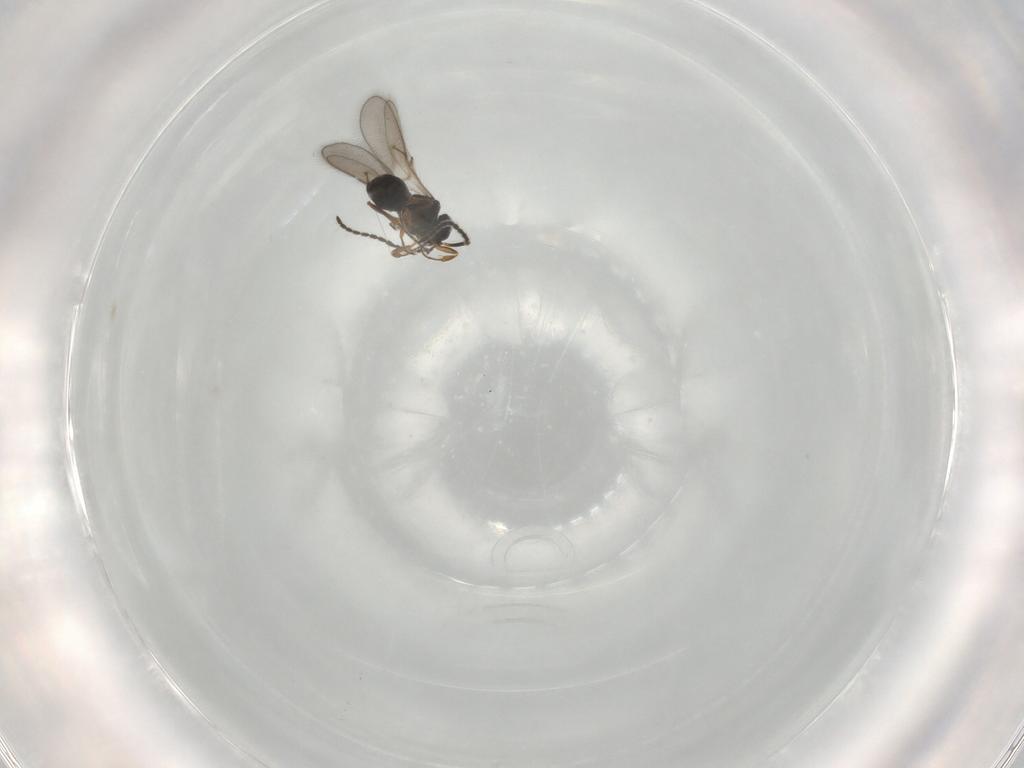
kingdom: Animalia
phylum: Arthropoda
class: Insecta
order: Hymenoptera
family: Scelionidae
